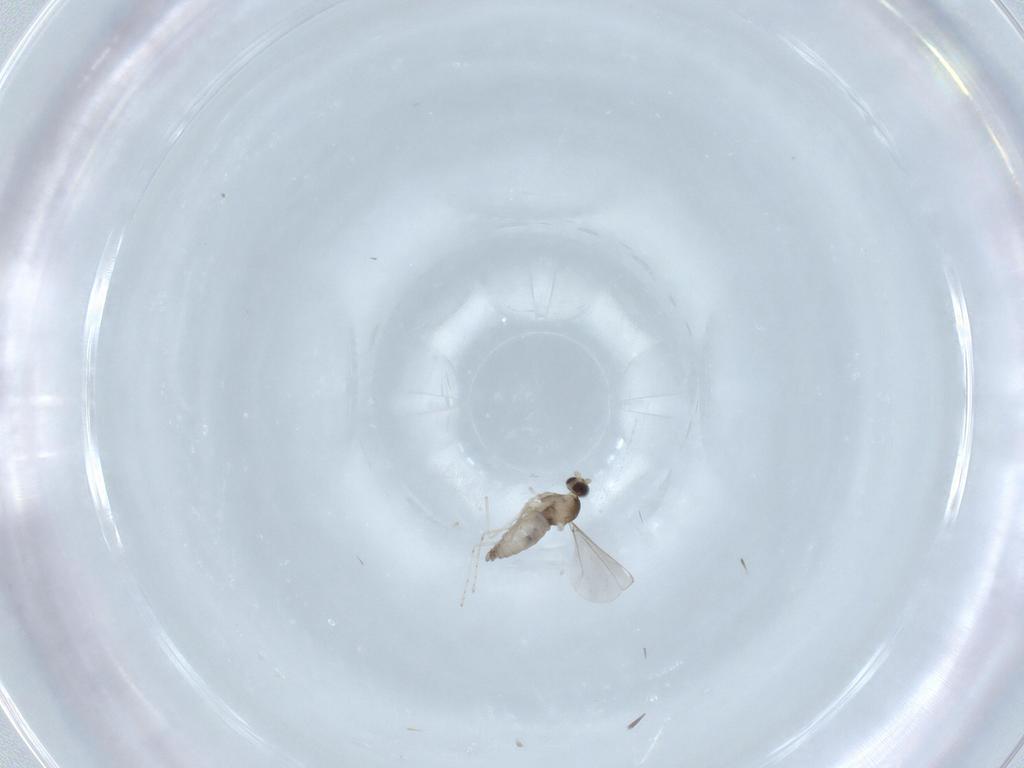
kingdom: Animalia
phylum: Arthropoda
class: Insecta
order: Diptera
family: Cecidomyiidae
